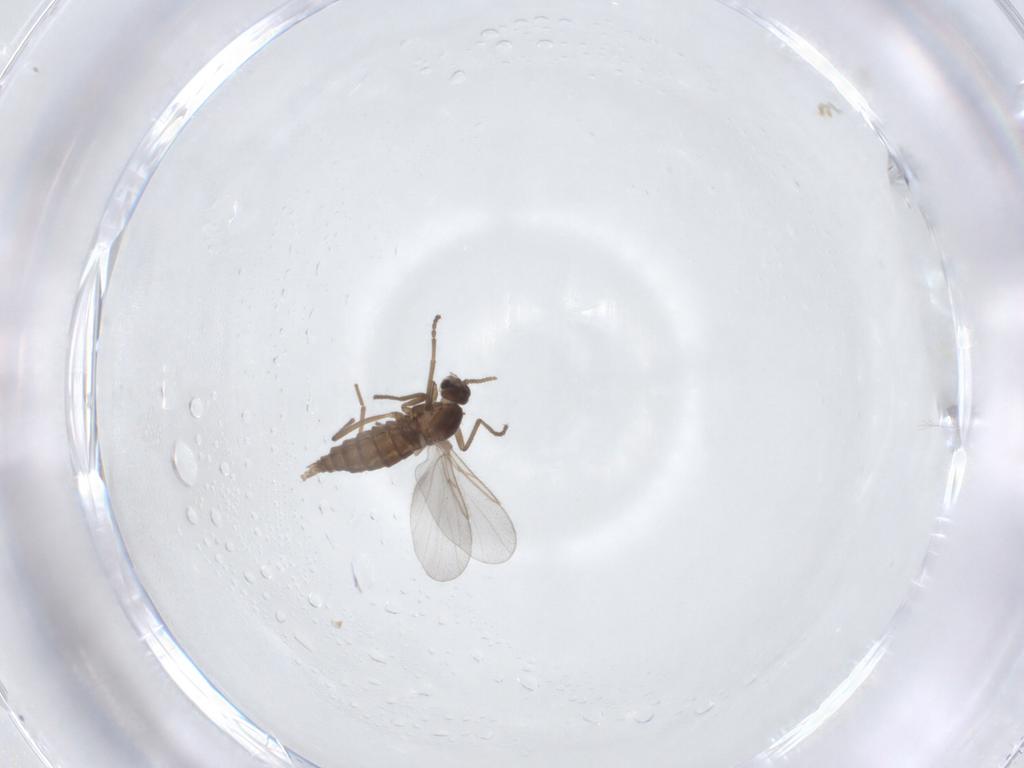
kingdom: Animalia
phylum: Arthropoda
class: Insecta
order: Diptera
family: Cecidomyiidae
